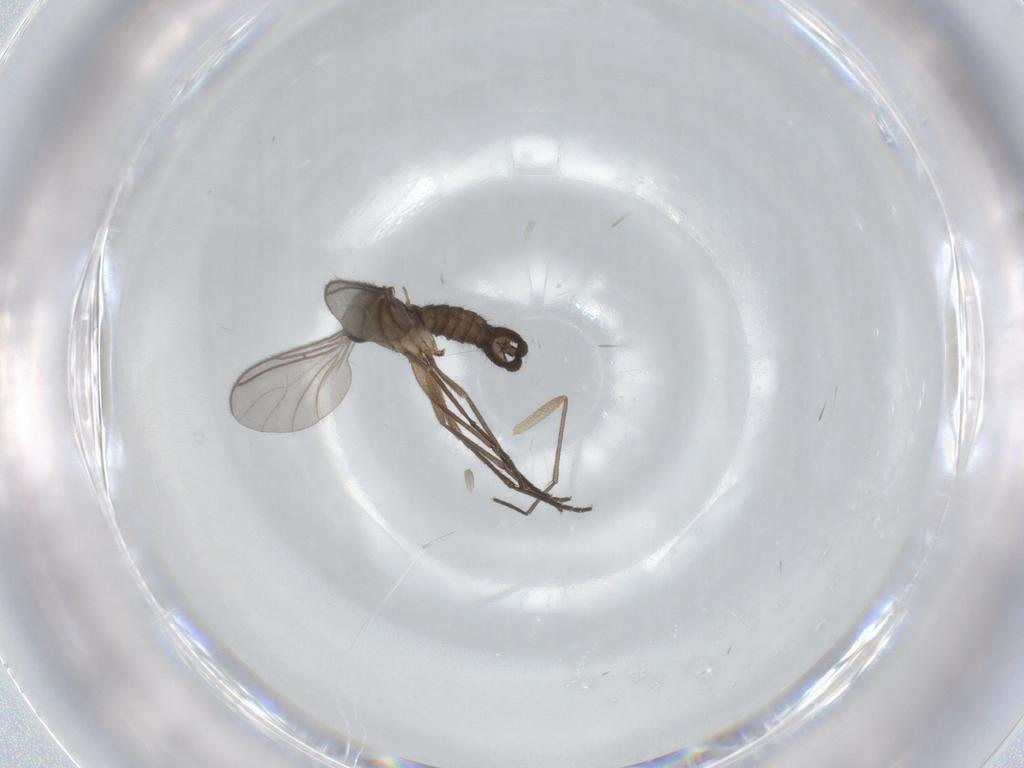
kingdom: Animalia
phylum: Arthropoda
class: Insecta
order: Diptera
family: Sciaridae
